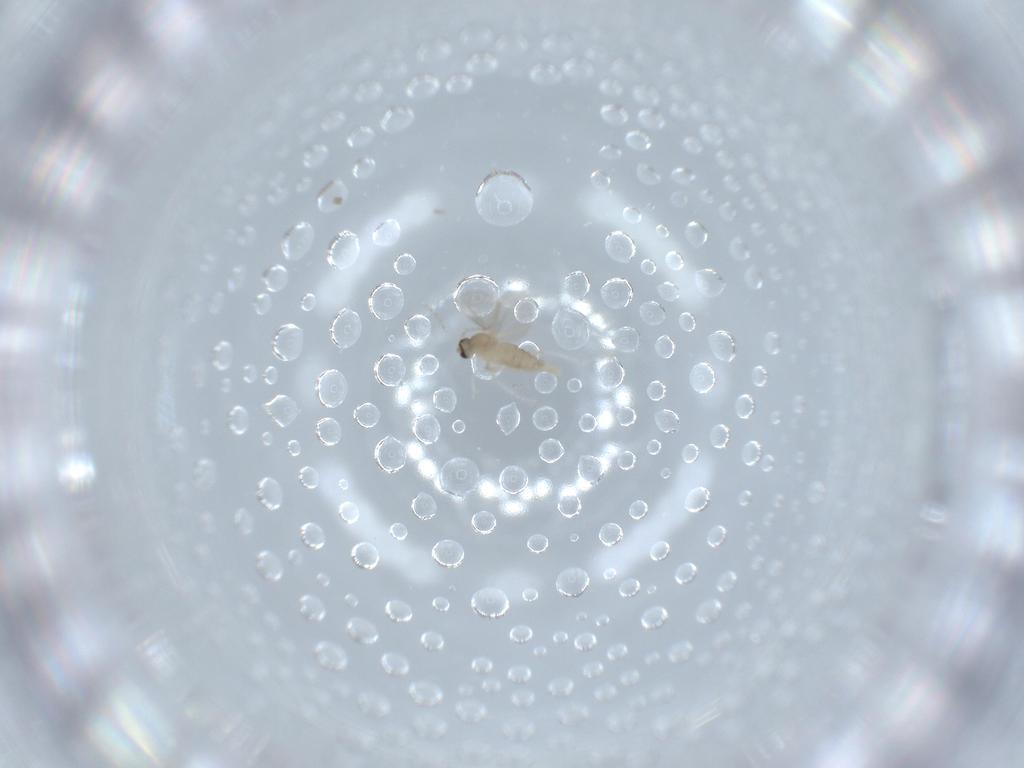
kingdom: Animalia
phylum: Arthropoda
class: Insecta
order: Diptera
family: Cecidomyiidae
